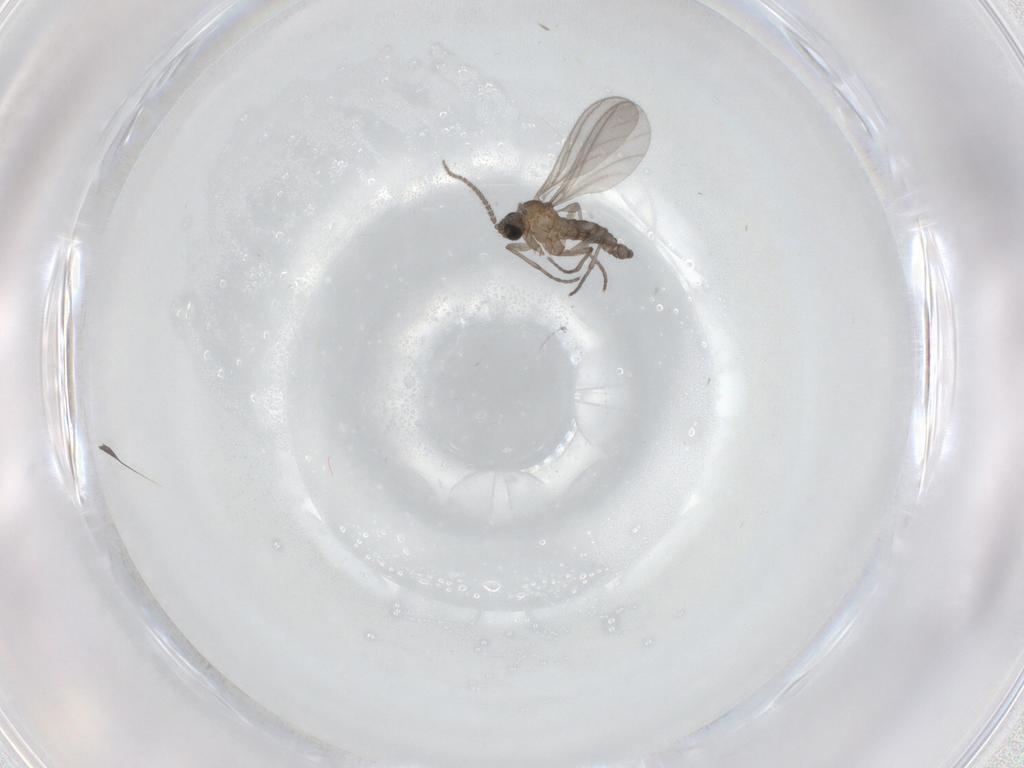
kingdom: Animalia
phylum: Arthropoda
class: Insecta
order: Diptera
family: Sciaridae
